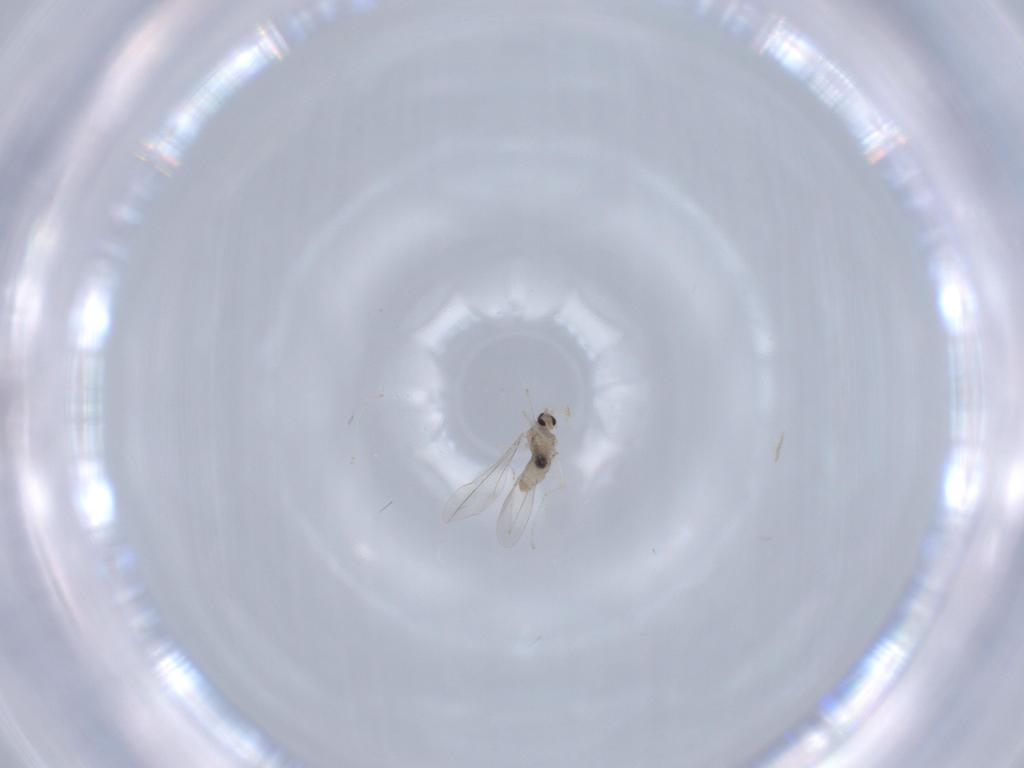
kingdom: Animalia
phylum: Arthropoda
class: Insecta
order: Diptera
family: Cecidomyiidae
